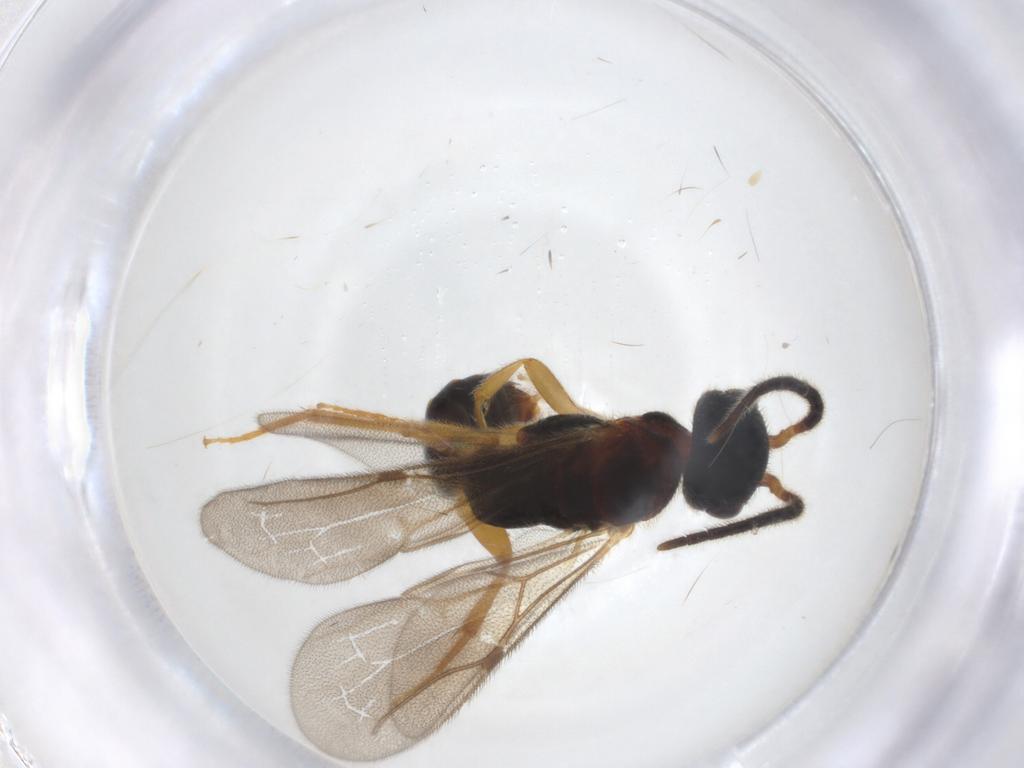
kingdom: Animalia
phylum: Arthropoda
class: Insecta
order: Hymenoptera
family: Bethylidae
